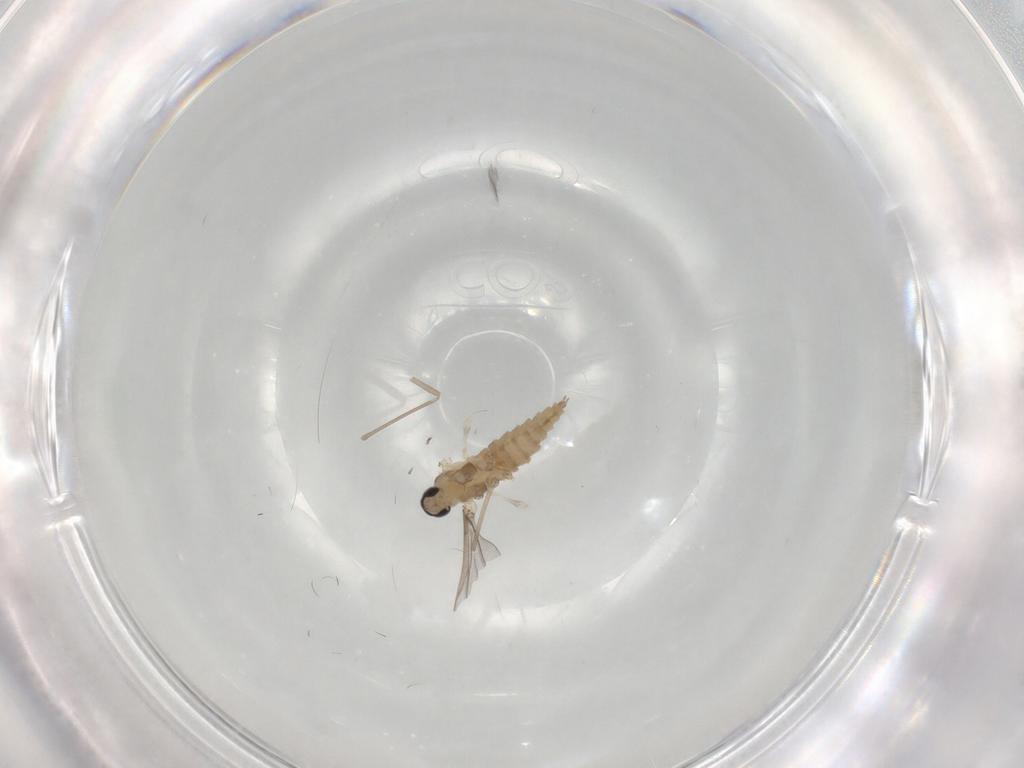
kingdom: Animalia
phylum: Arthropoda
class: Insecta
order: Diptera
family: Cecidomyiidae
